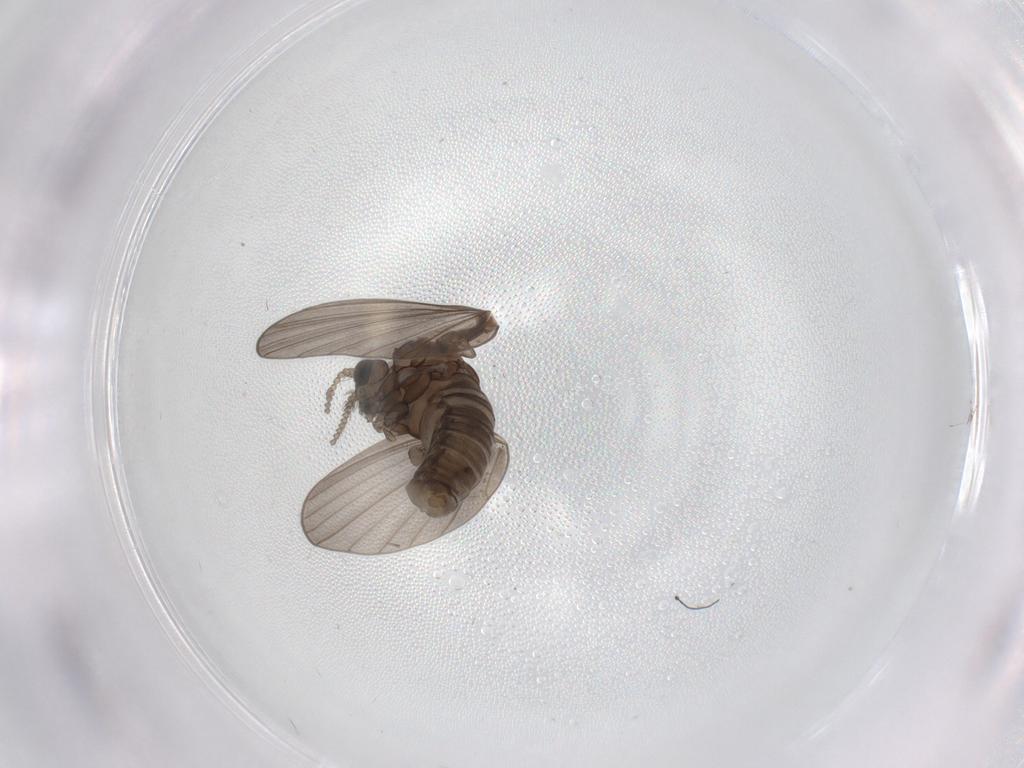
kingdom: Animalia
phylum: Arthropoda
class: Insecta
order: Diptera
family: Psychodidae
